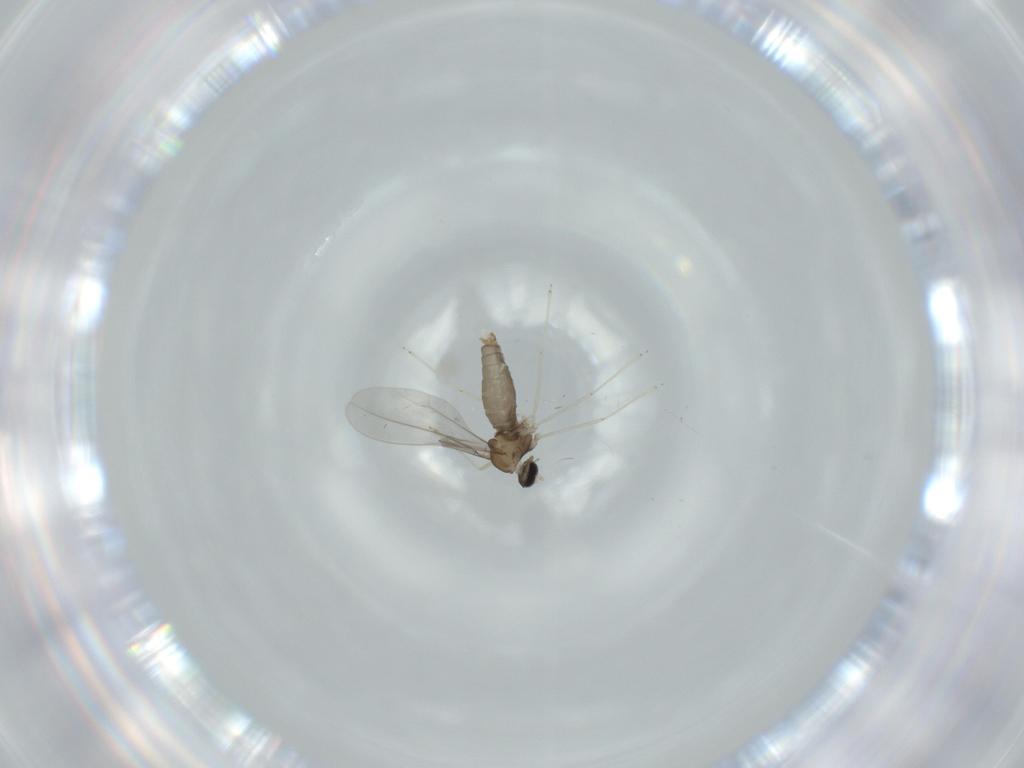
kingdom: Animalia
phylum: Arthropoda
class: Insecta
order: Diptera
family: Cecidomyiidae
